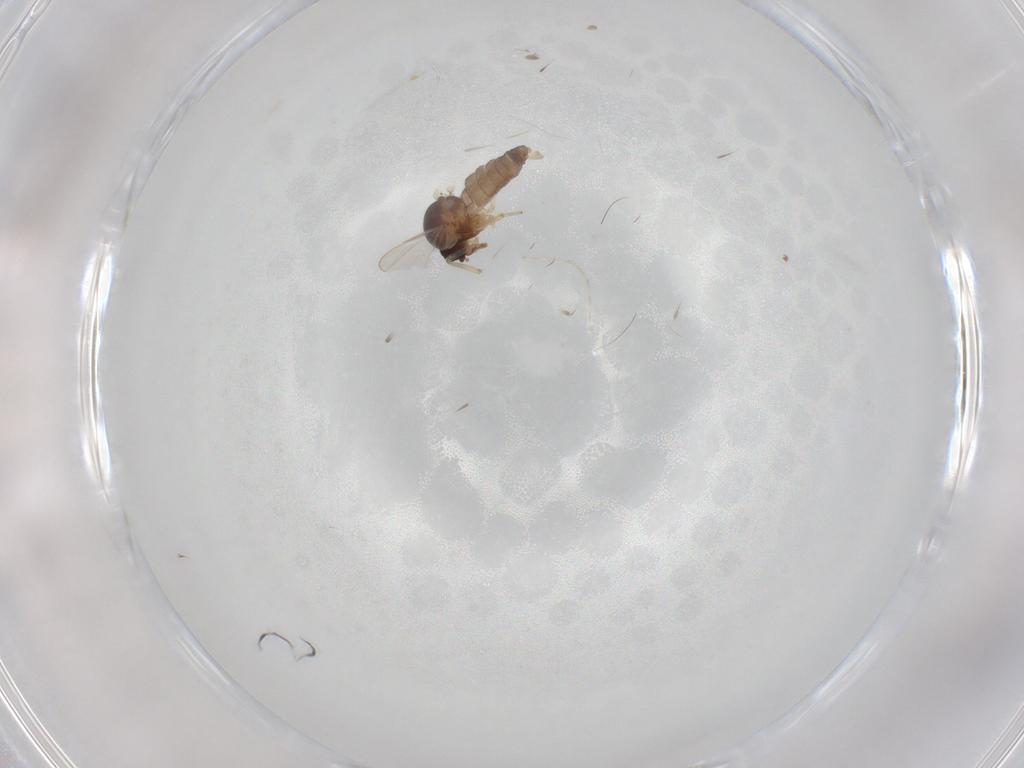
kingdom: Animalia
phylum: Arthropoda
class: Insecta
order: Diptera
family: Ceratopogonidae
